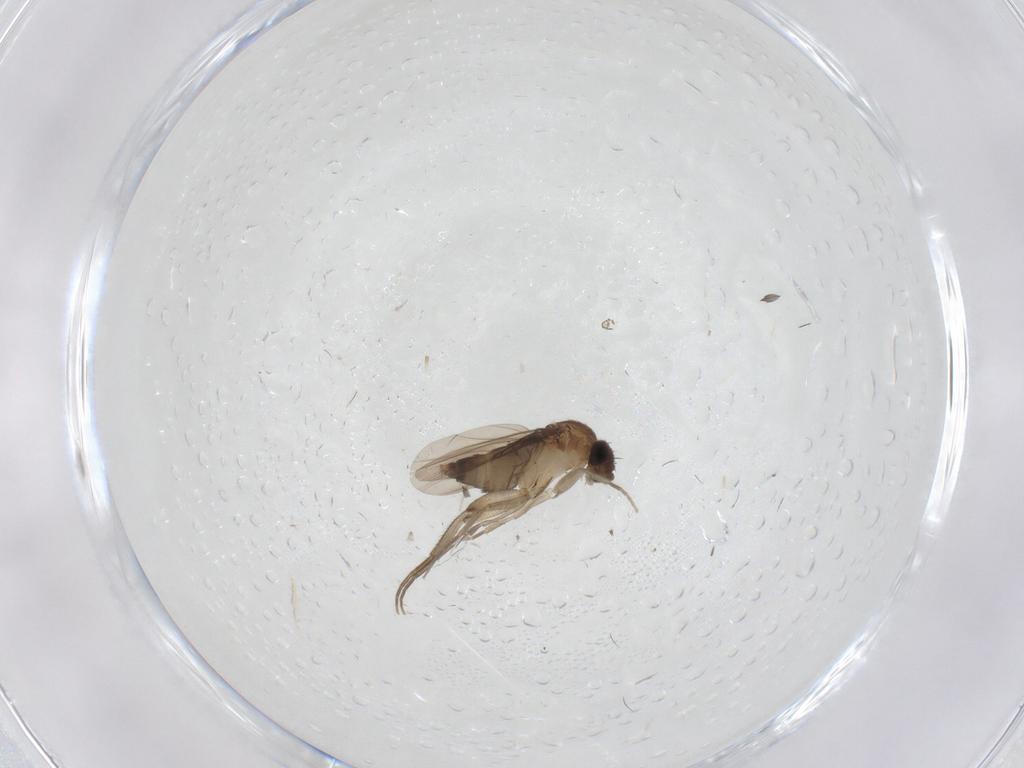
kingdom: Animalia
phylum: Arthropoda
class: Insecta
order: Diptera
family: Phoridae
